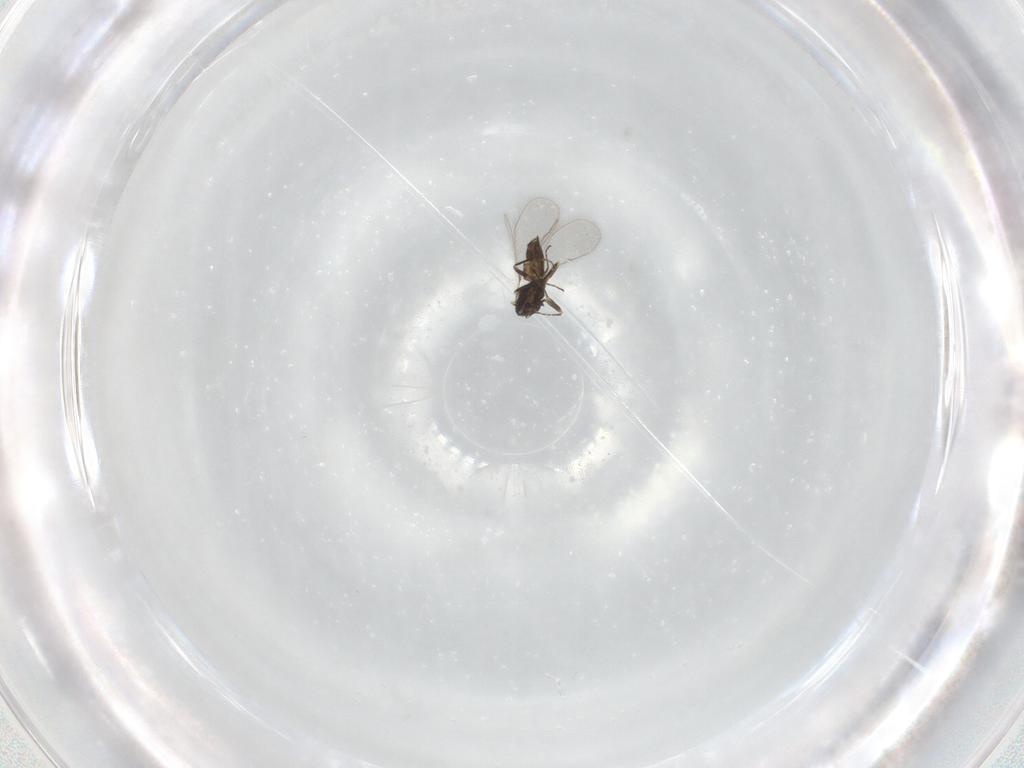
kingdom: Animalia
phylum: Arthropoda
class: Insecta
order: Hymenoptera
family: Mymaridae
